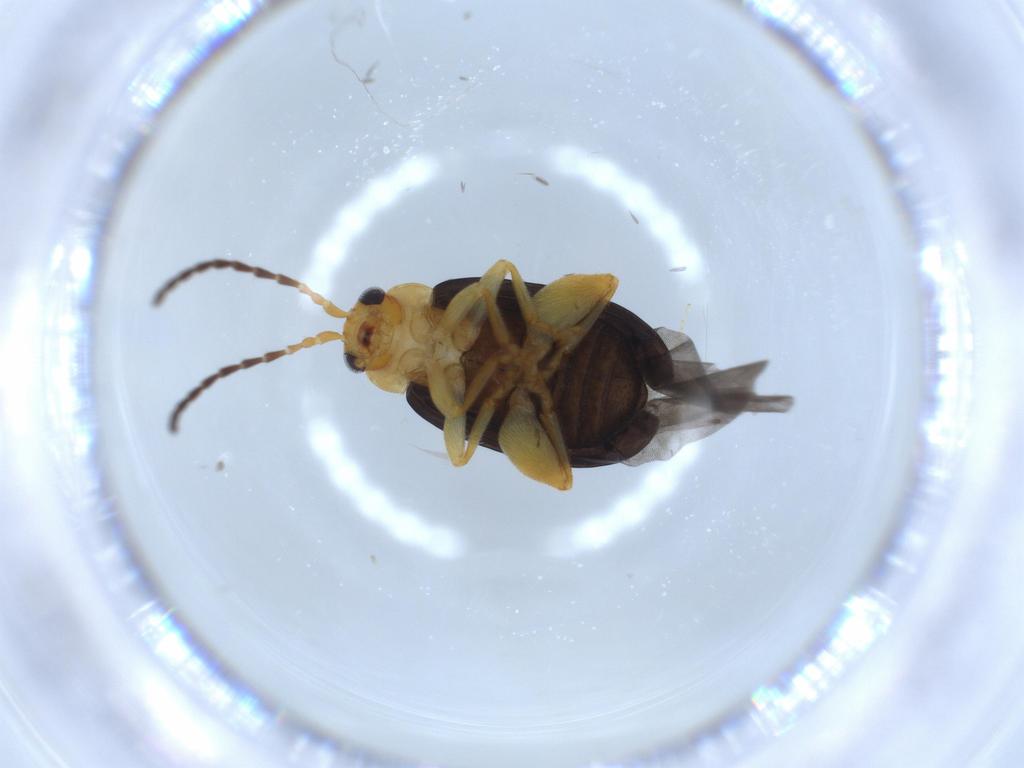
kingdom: Animalia
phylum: Arthropoda
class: Insecta
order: Coleoptera
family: Chrysomelidae
